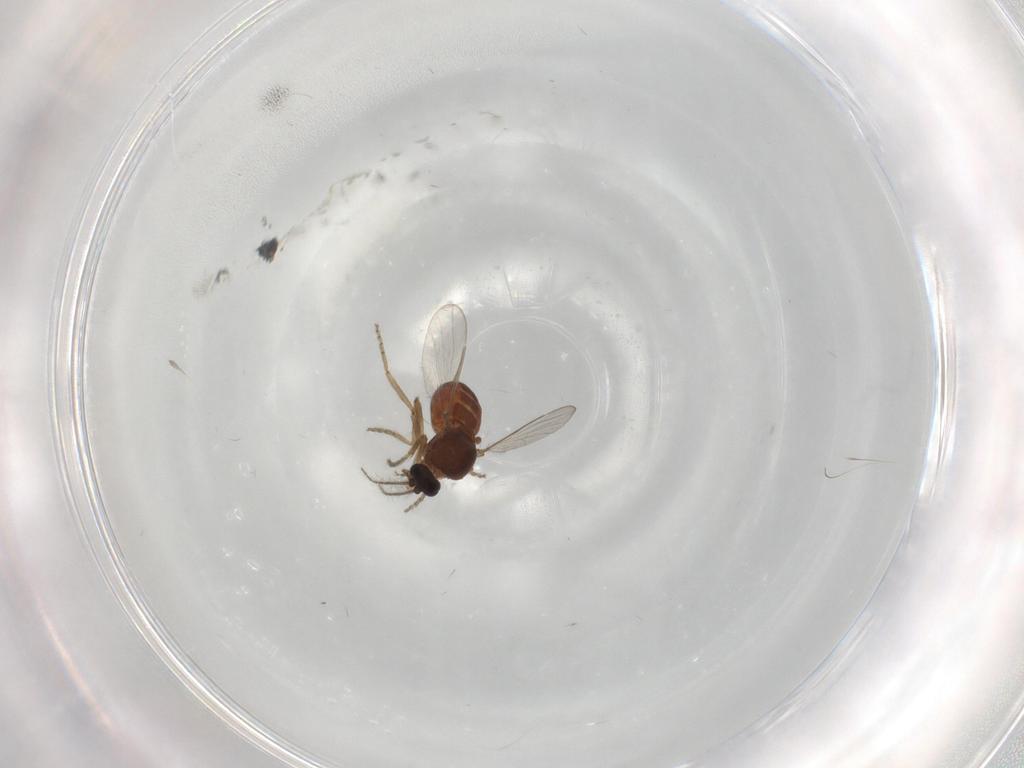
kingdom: Animalia
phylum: Arthropoda
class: Insecta
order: Diptera
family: Ceratopogonidae
